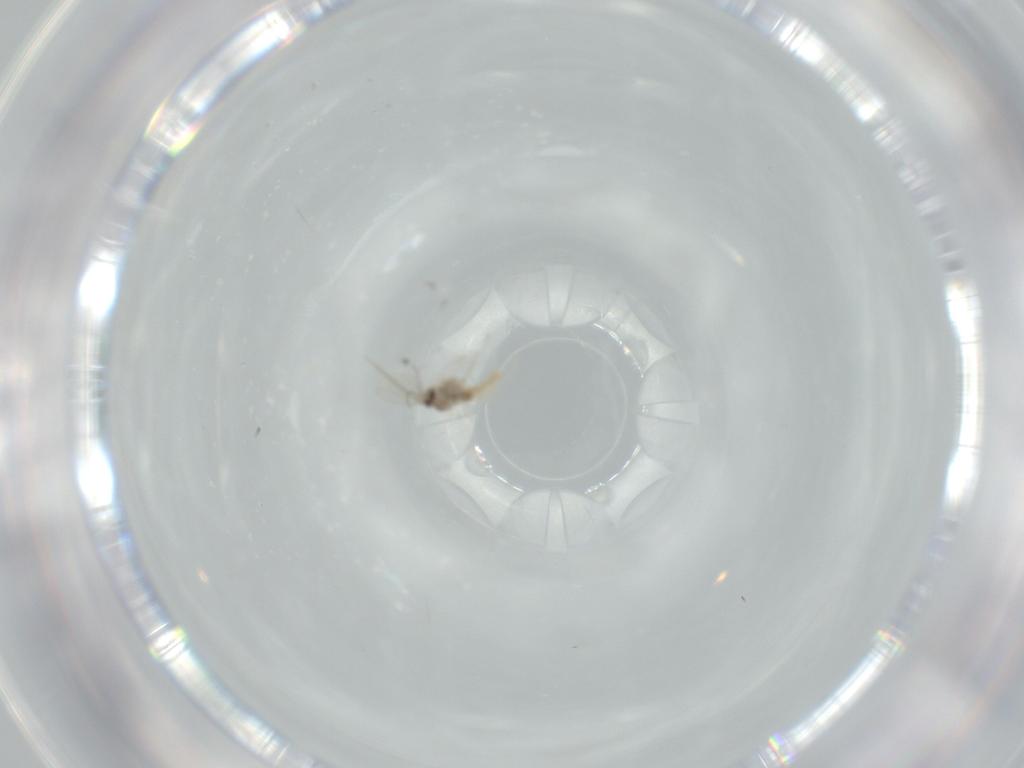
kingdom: Animalia
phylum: Arthropoda
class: Insecta
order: Diptera
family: Cecidomyiidae
